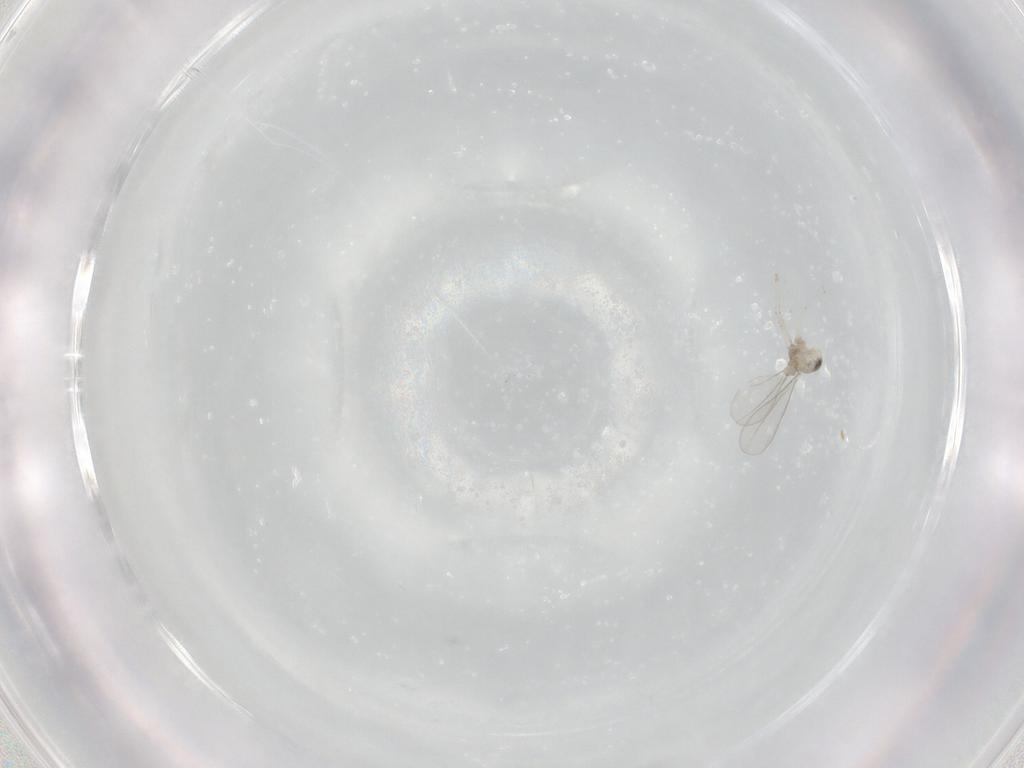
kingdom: Animalia
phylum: Arthropoda
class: Insecta
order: Diptera
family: Cecidomyiidae
